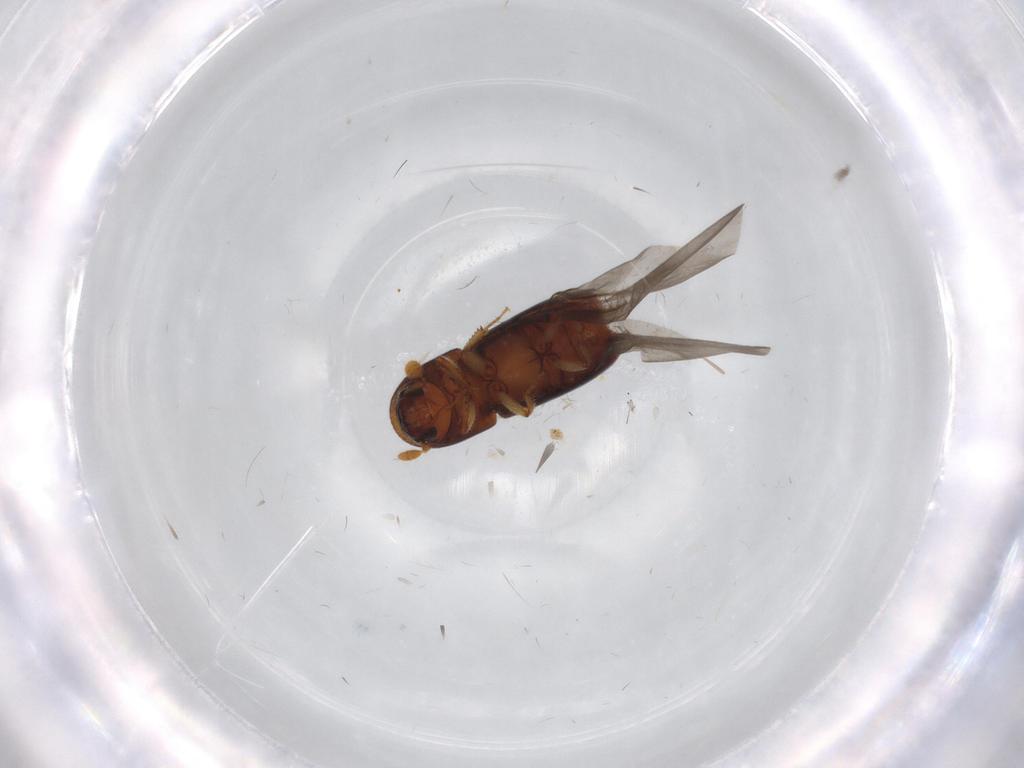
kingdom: Animalia
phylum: Arthropoda
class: Insecta
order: Coleoptera
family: Curculionidae
